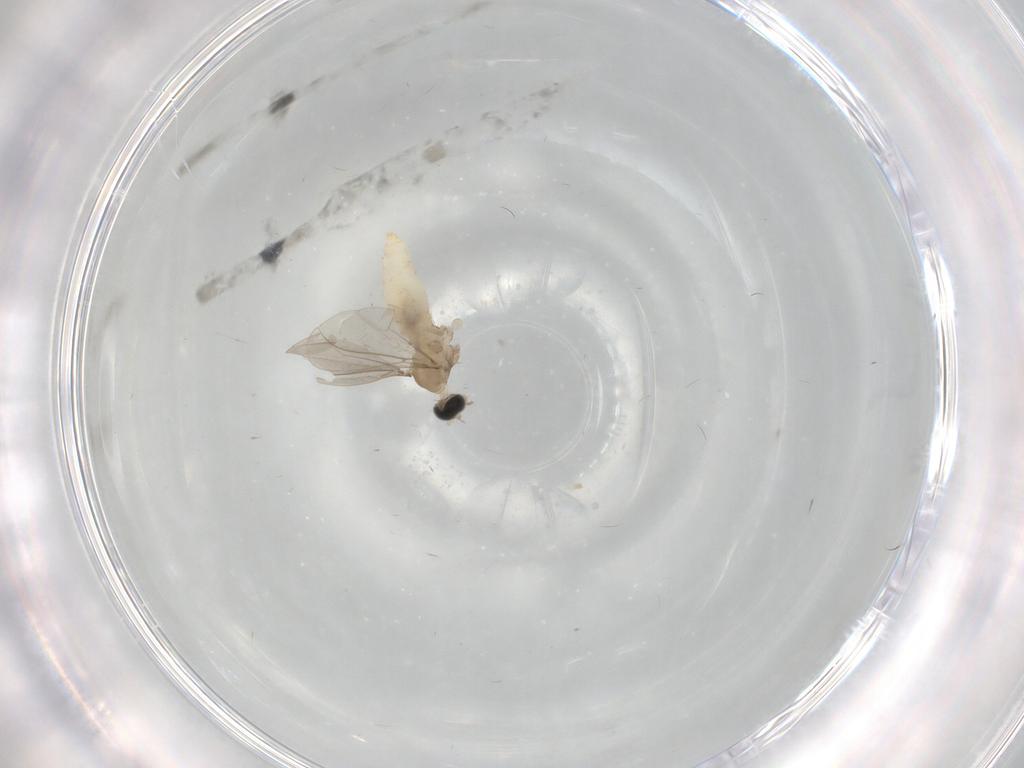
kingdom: Animalia
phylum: Arthropoda
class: Insecta
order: Diptera
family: Cecidomyiidae
